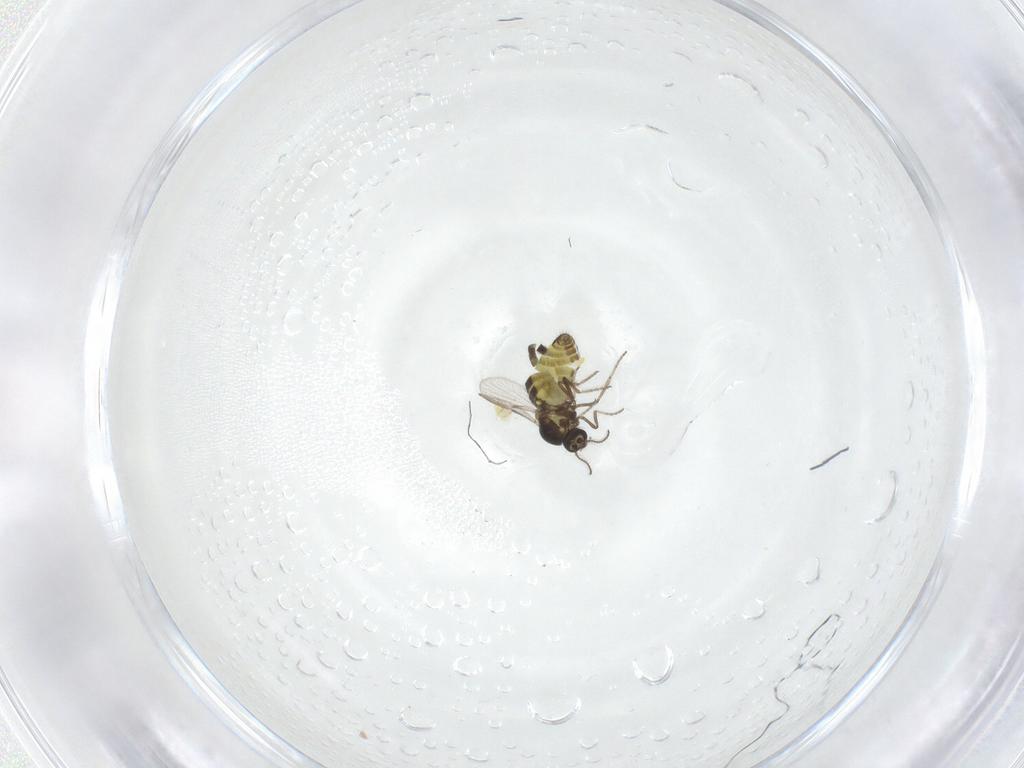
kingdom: Animalia
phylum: Arthropoda
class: Insecta
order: Diptera
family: Ceratopogonidae
